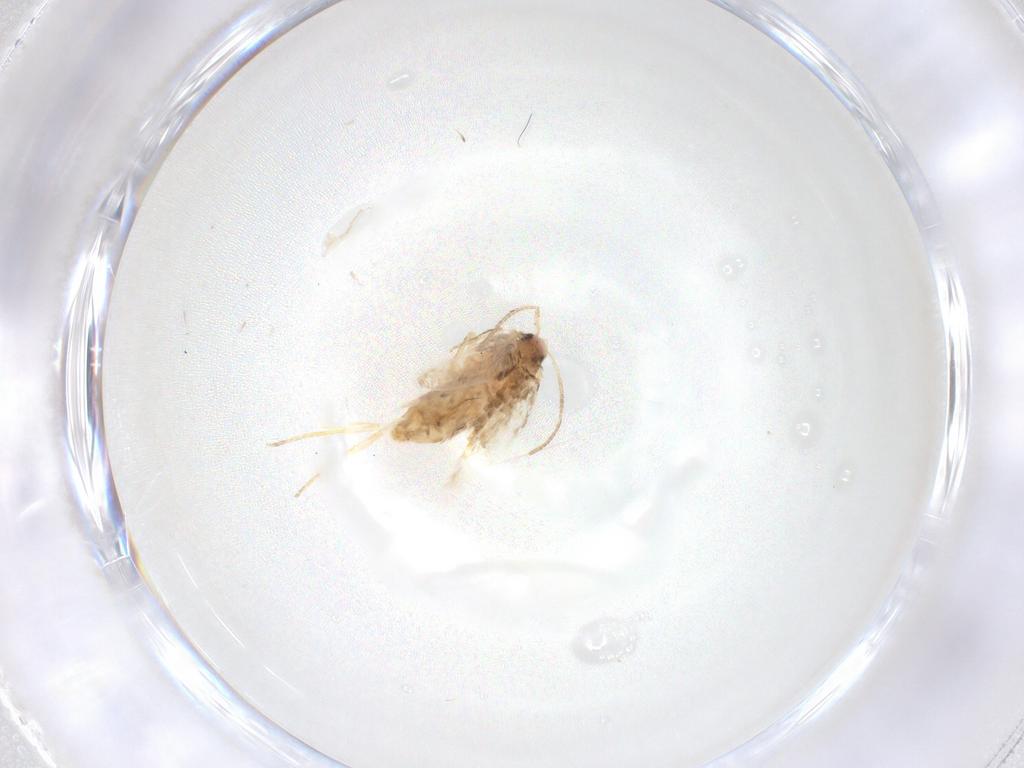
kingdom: Animalia
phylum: Arthropoda
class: Insecta
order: Lepidoptera
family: Nepticulidae
